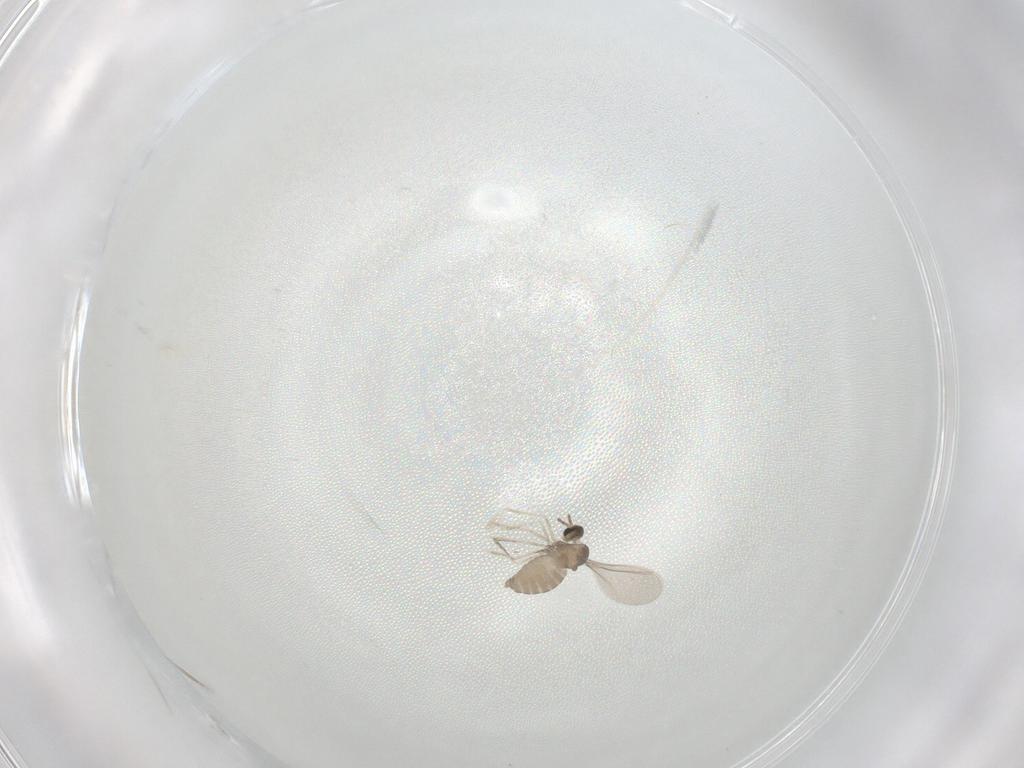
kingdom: Animalia
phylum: Arthropoda
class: Insecta
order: Diptera
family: Cecidomyiidae
